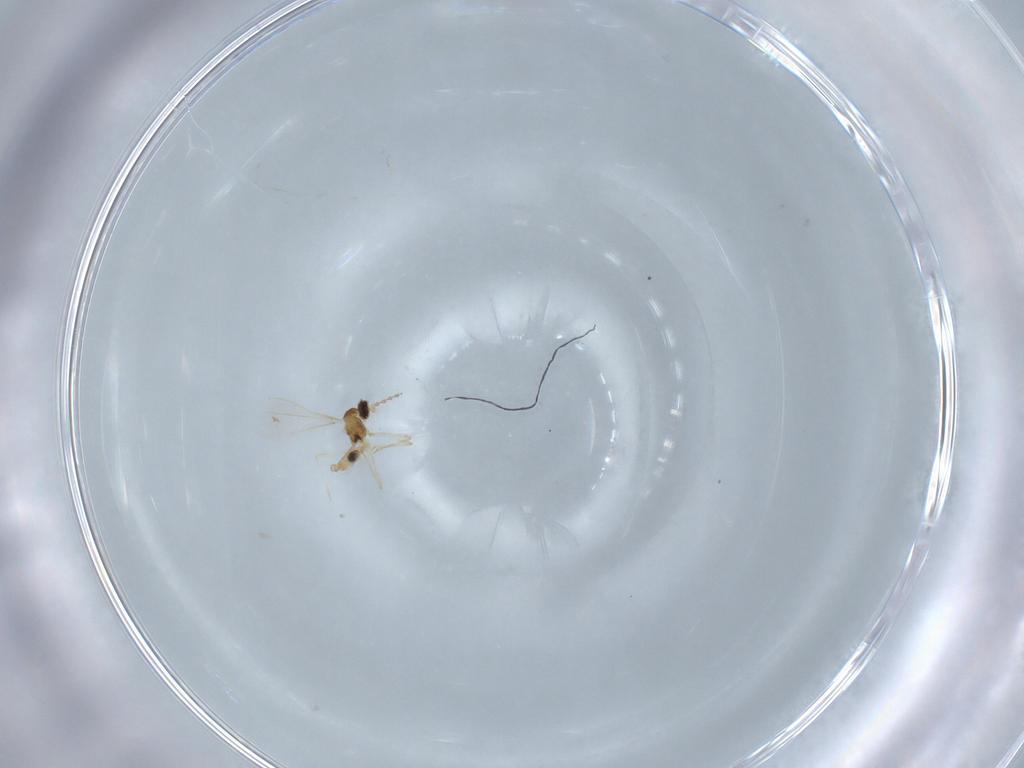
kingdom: Animalia
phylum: Arthropoda
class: Insecta
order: Diptera
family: Cecidomyiidae
